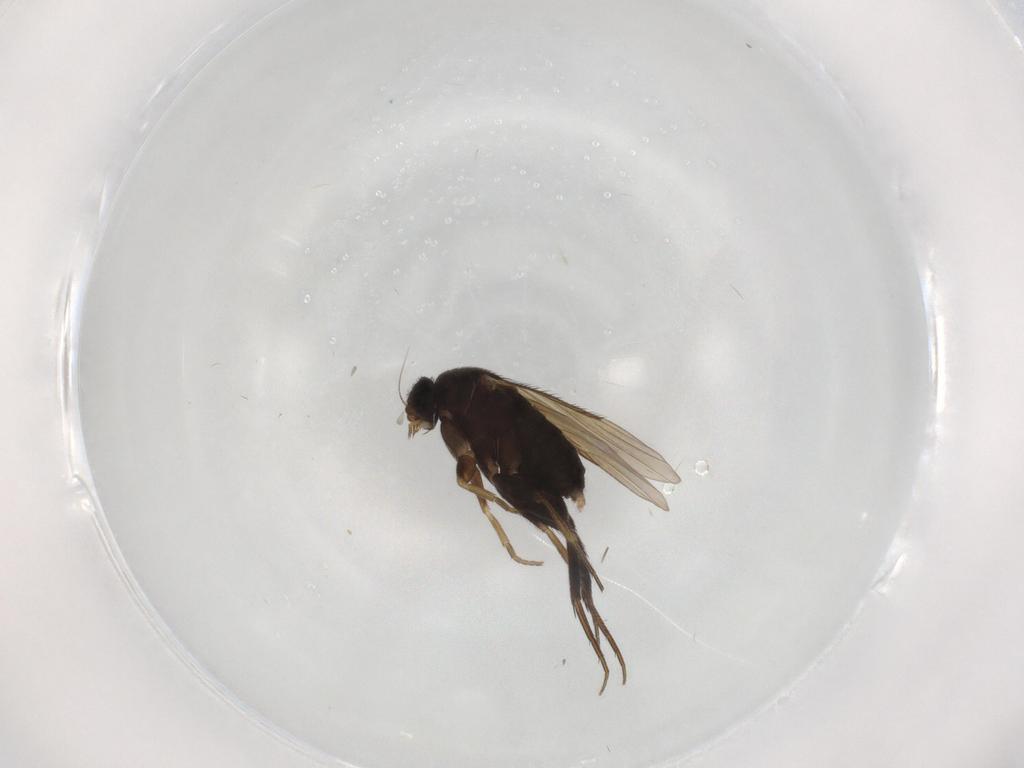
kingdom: Animalia
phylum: Arthropoda
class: Insecta
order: Diptera
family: Phoridae
